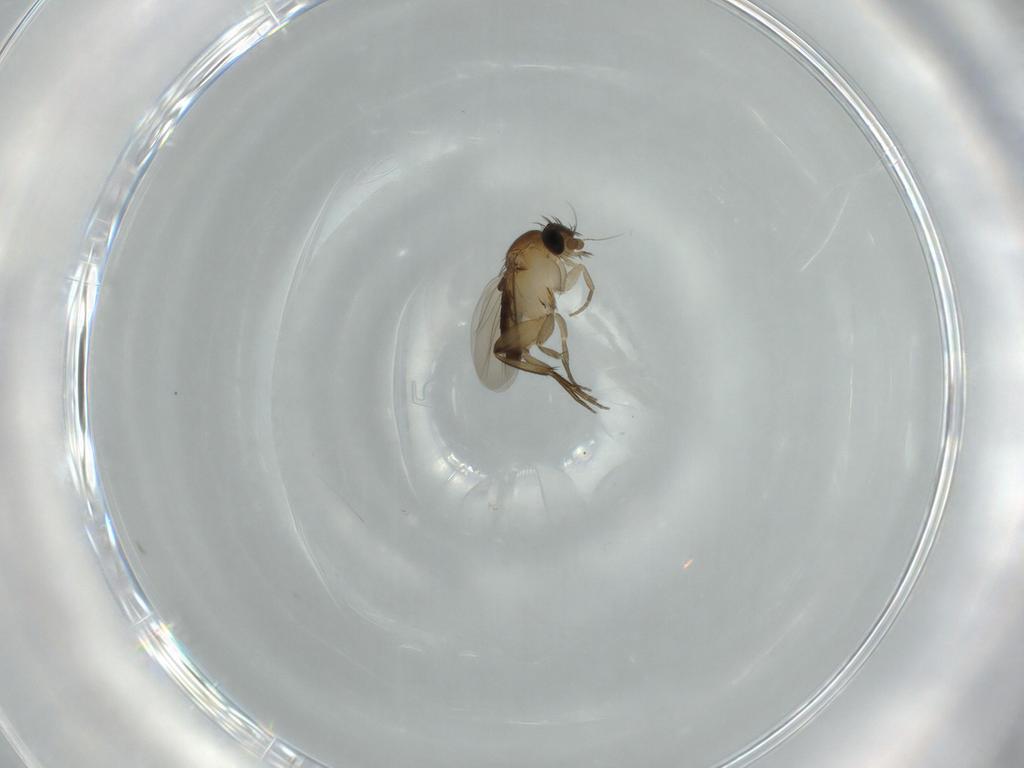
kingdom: Animalia
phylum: Arthropoda
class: Insecta
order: Diptera
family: Phoridae
